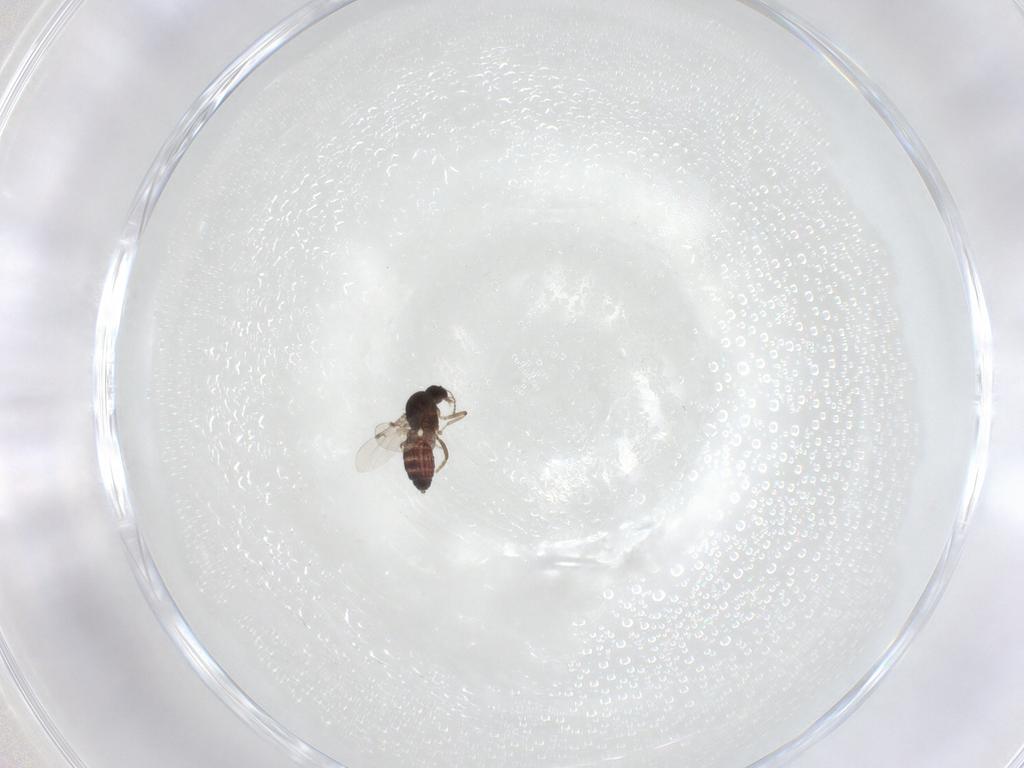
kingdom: Animalia
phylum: Arthropoda
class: Insecta
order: Diptera
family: Ceratopogonidae
